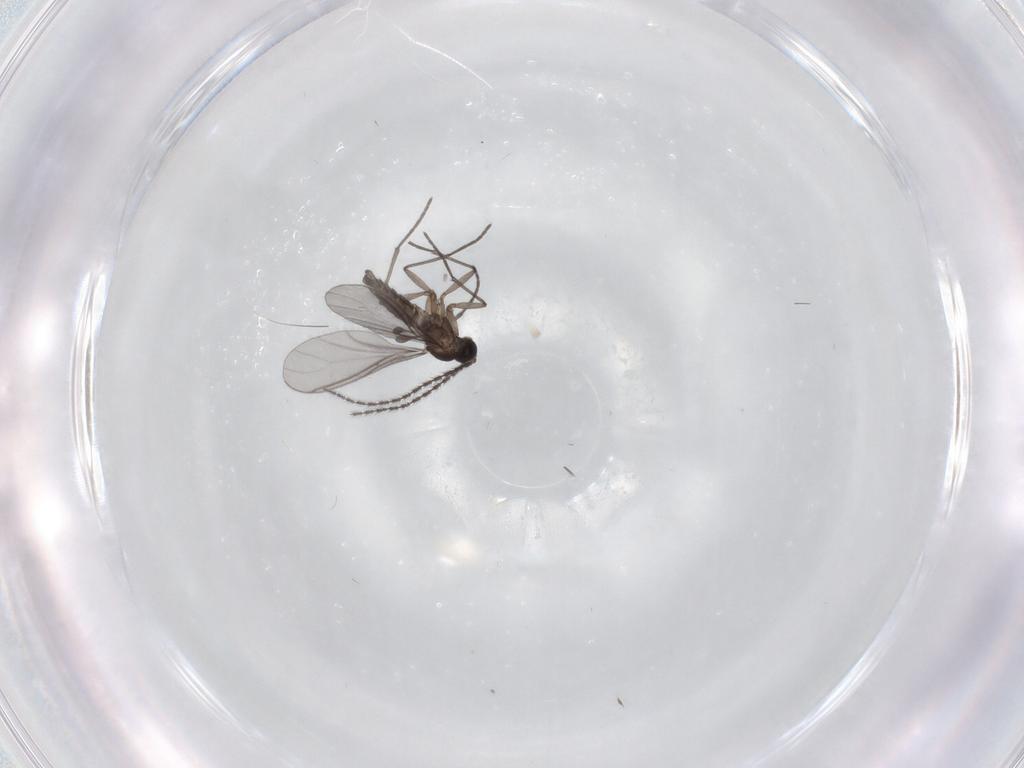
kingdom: Animalia
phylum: Arthropoda
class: Insecta
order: Diptera
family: Sciaridae
